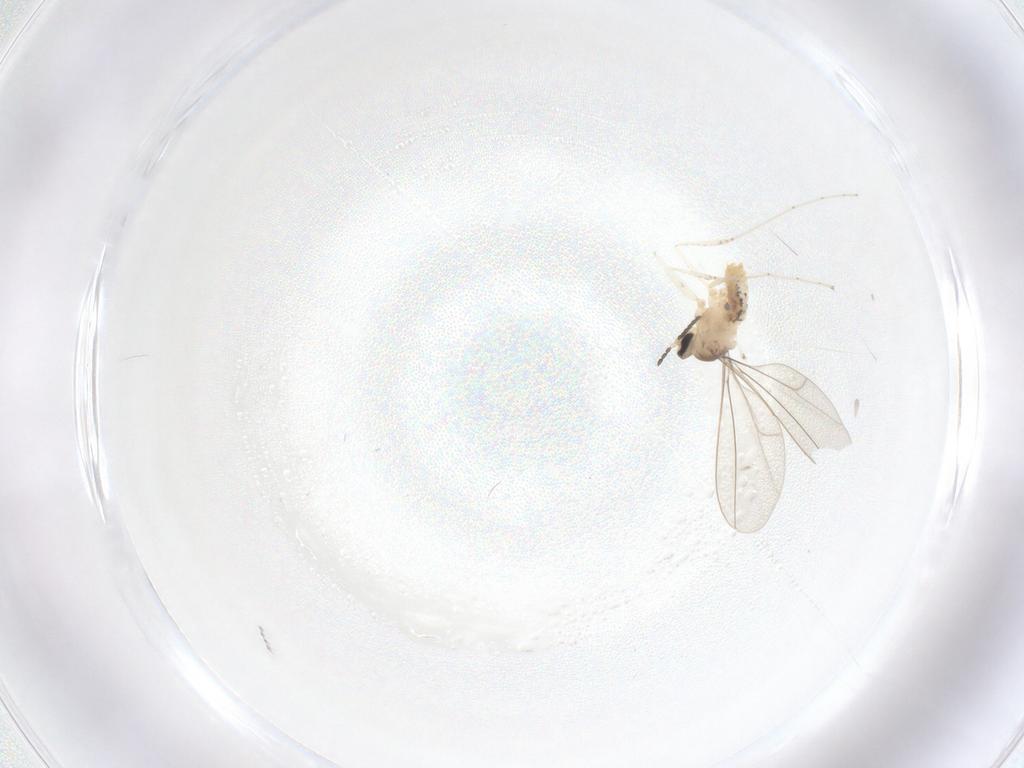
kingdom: Animalia
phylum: Arthropoda
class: Insecta
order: Diptera
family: Cecidomyiidae
